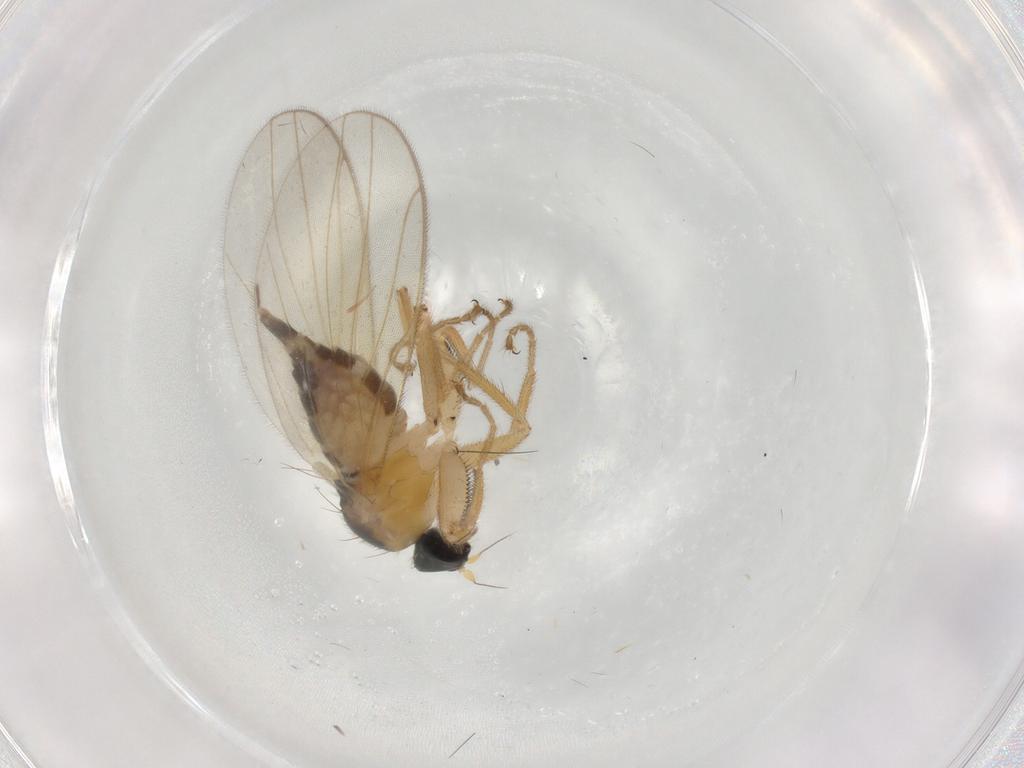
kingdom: Animalia
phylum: Arthropoda
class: Insecta
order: Diptera
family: Cecidomyiidae
